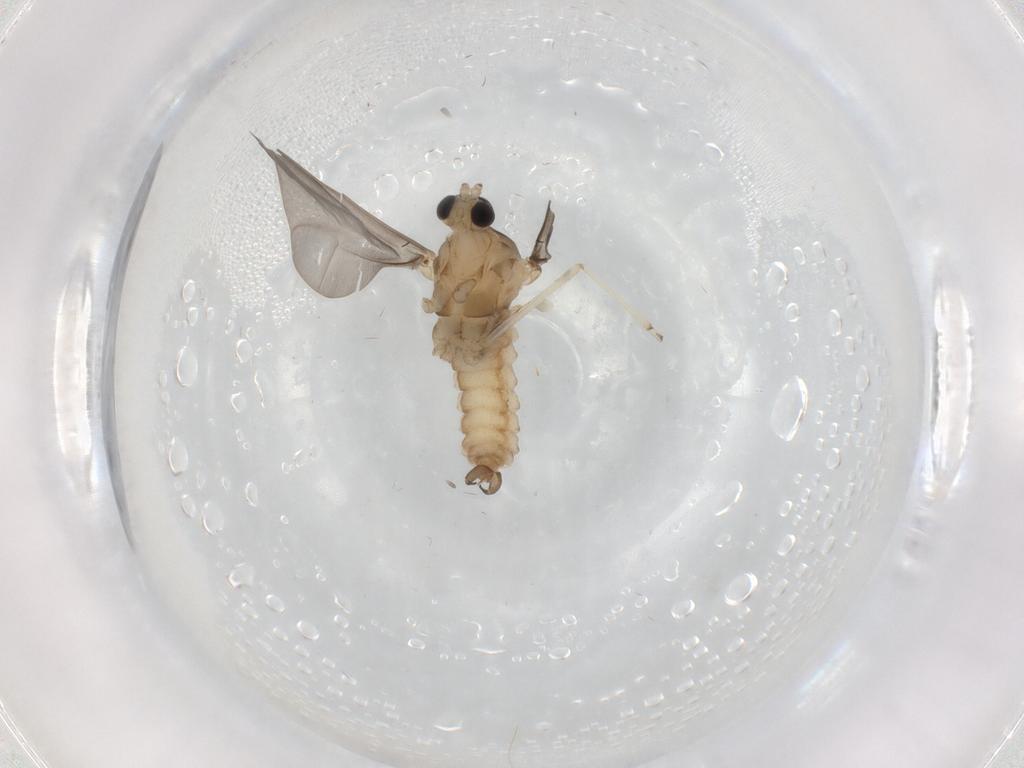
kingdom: Animalia
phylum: Arthropoda
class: Insecta
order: Diptera
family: Cecidomyiidae
